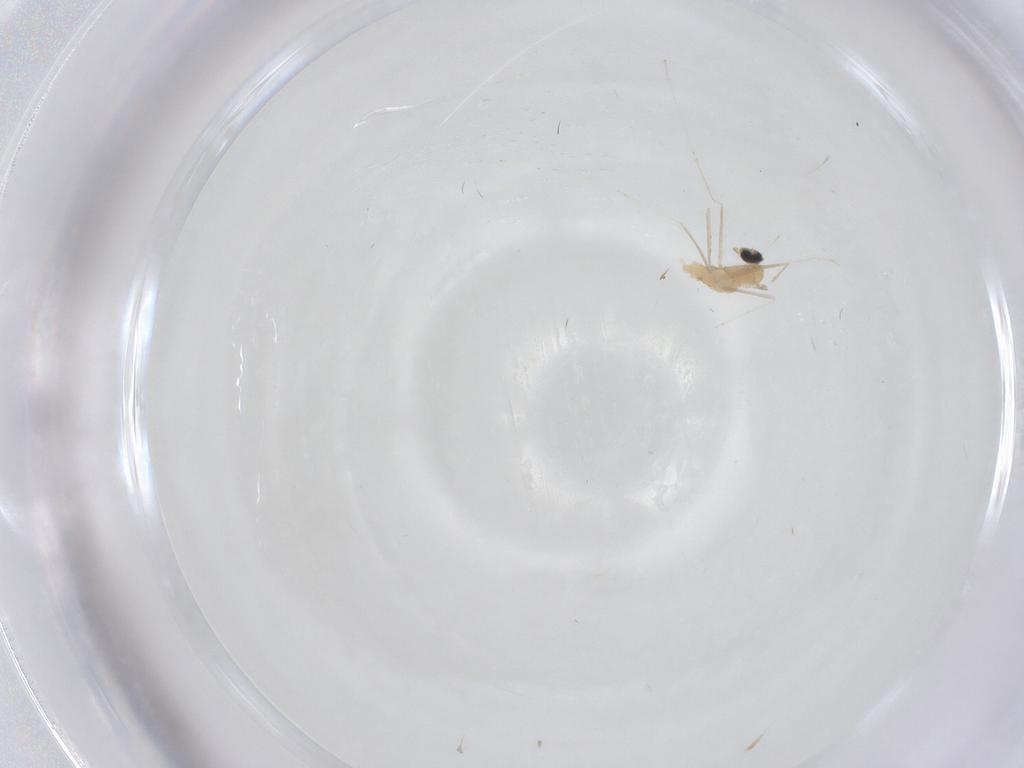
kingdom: Animalia
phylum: Arthropoda
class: Insecta
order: Diptera
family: Cecidomyiidae
